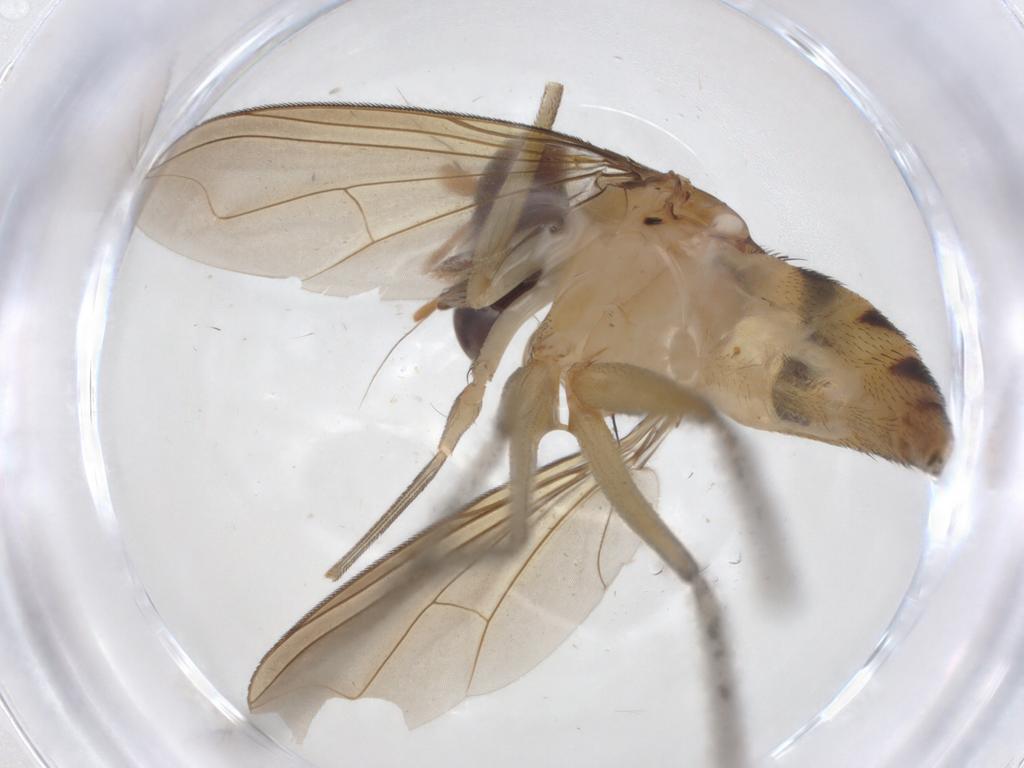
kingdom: Animalia
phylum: Arthropoda
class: Insecta
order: Diptera
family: Dolichopodidae
